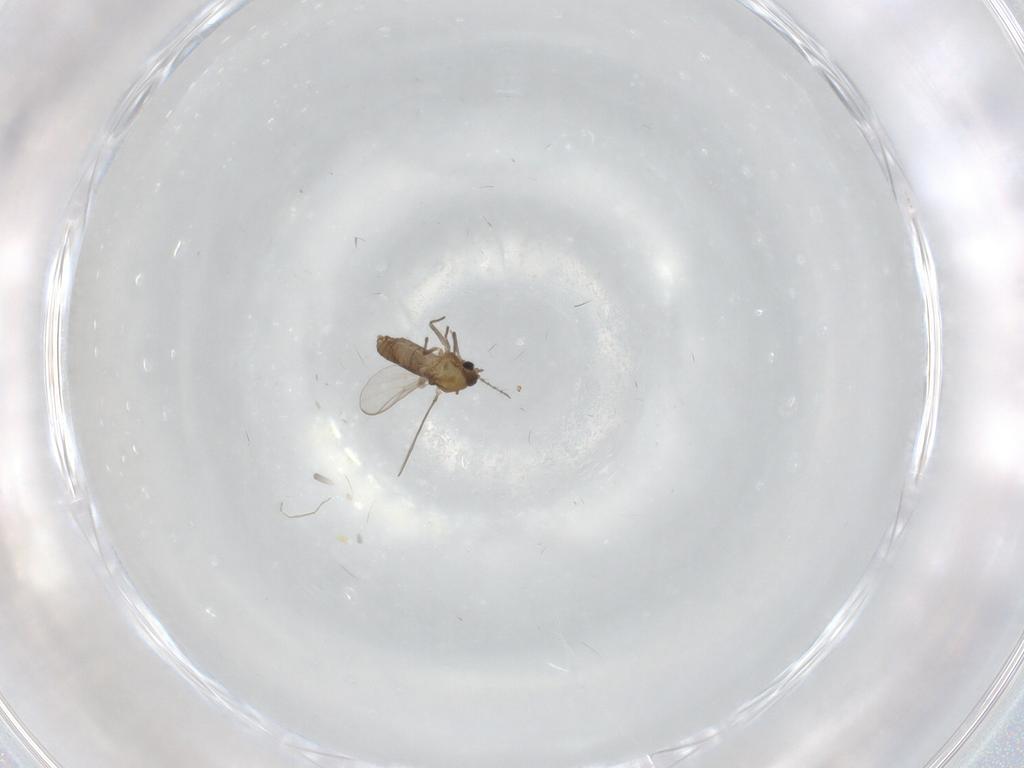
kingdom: Animalia
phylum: Arthropoda
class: Insecta
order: Diptera
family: Chironomidae
